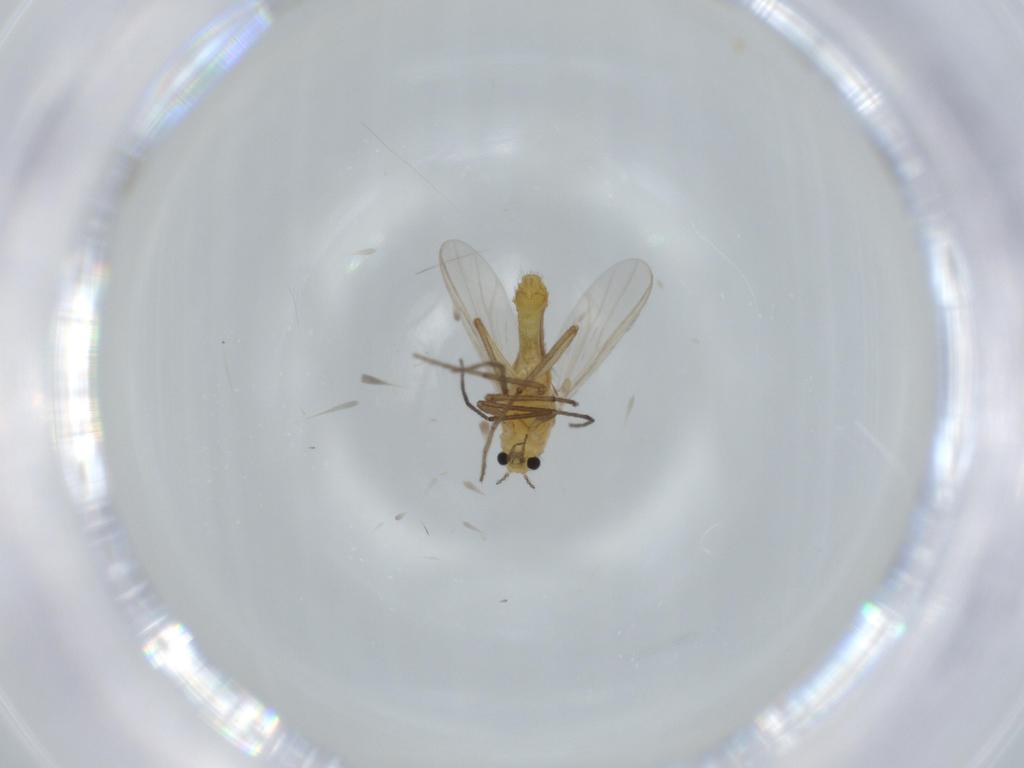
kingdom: Animalia
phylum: Arthropoda
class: Insecta
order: Diptera
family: Chironomidae
